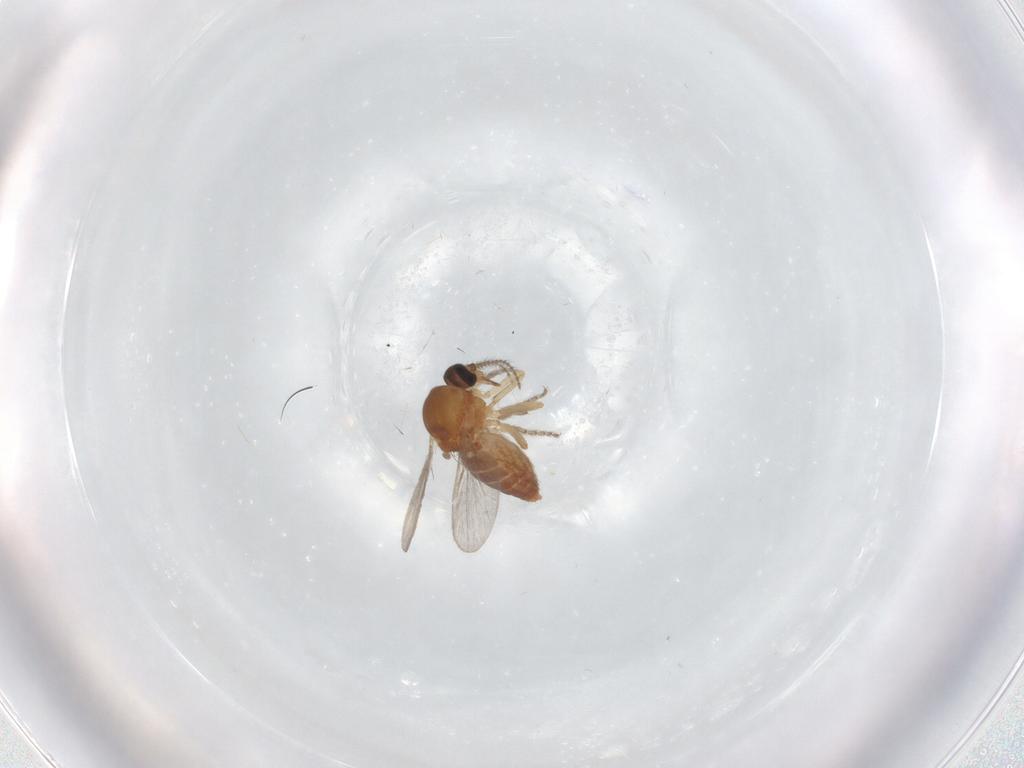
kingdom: Animalia
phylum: Arthropoda
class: Insecta
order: Diptera
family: Ceratopogonidae
